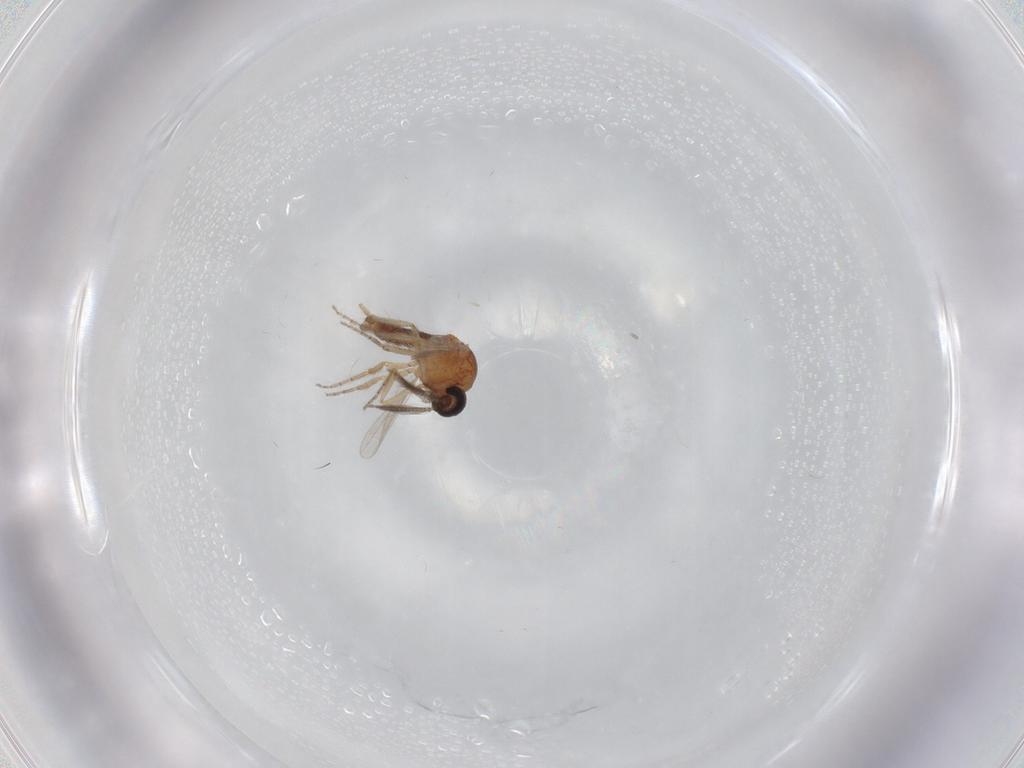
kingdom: Animalia
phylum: Arthropoda
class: Insecta
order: Diptera
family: Ceratopogonidae
